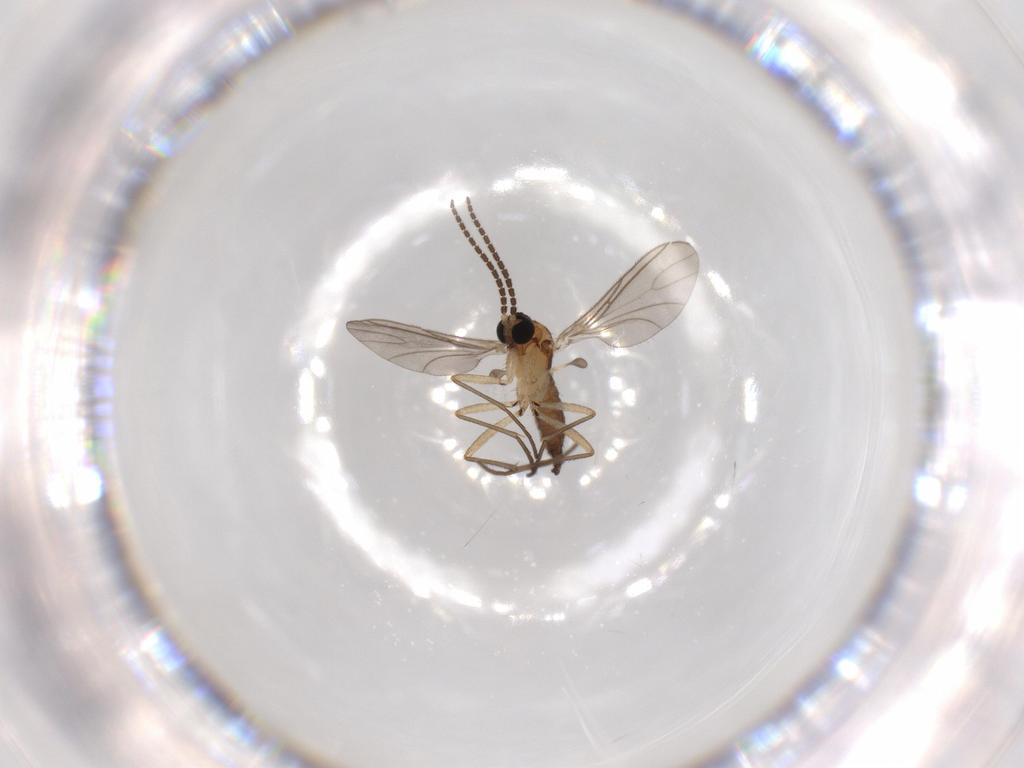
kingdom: Animalia
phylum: Arthropoda
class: Insecta
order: Diptera
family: Sciaridae
